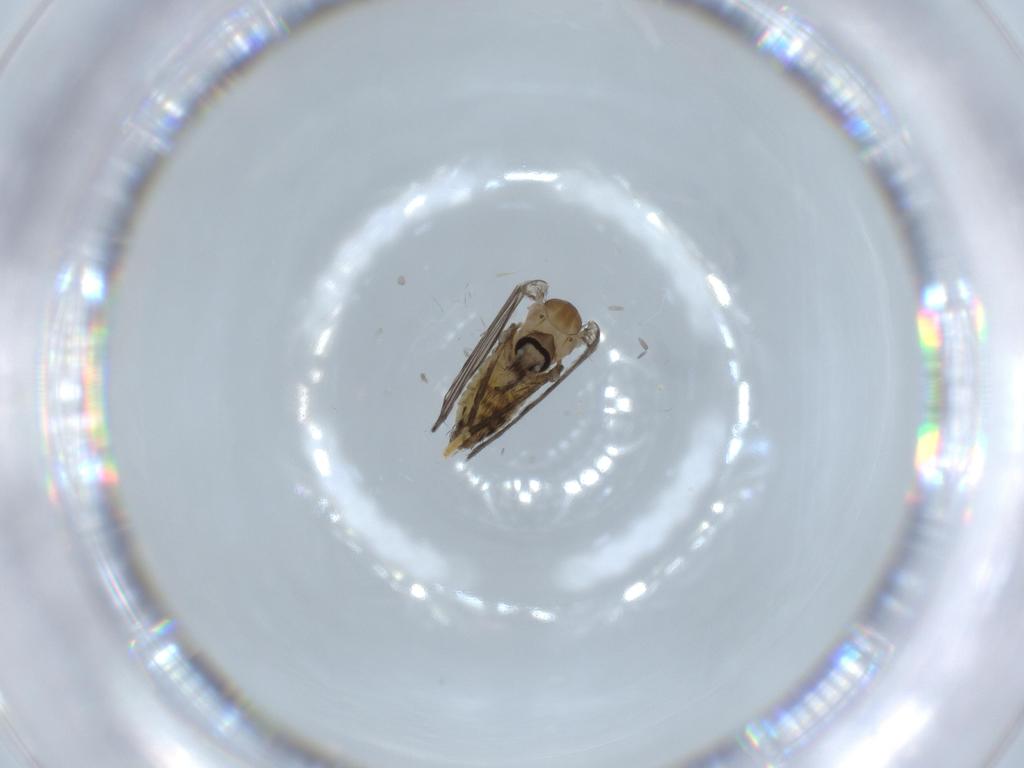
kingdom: Animalia
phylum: Arthropoda
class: Insecta
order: Diptera
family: Psychodidae
